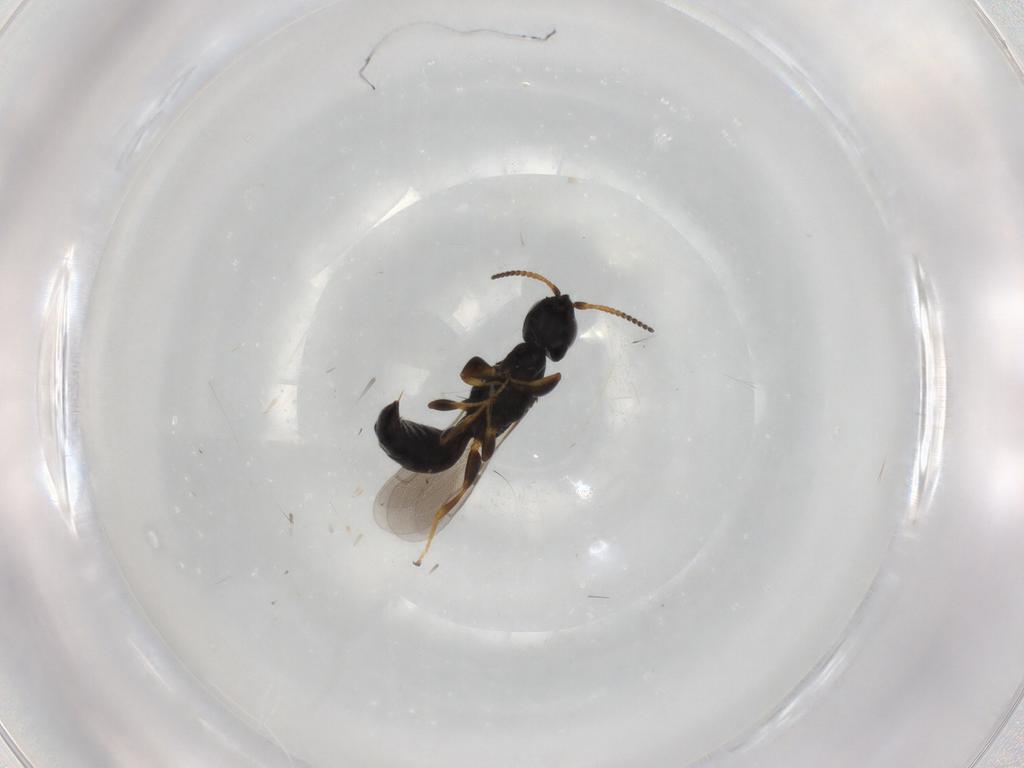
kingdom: Animalia
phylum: Arthropoda
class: Insecta
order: Hymenoptera
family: Bethylidae
